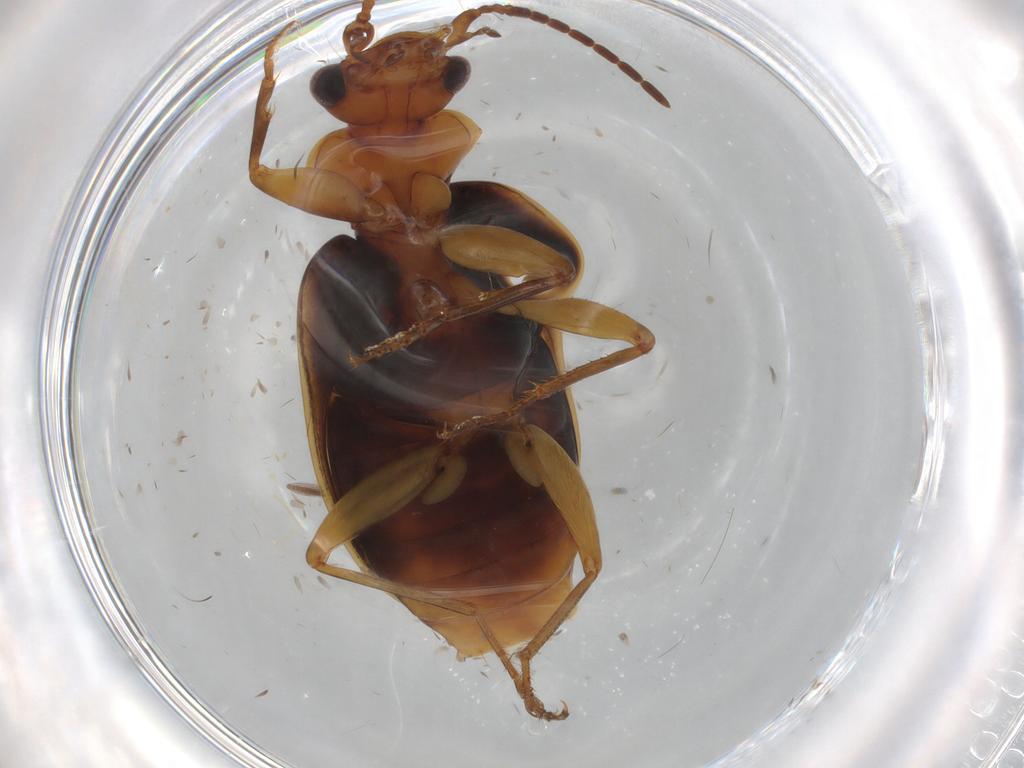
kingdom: Animalia
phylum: Arthropoda
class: Insecta
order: Coleoptera
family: Carabidae
